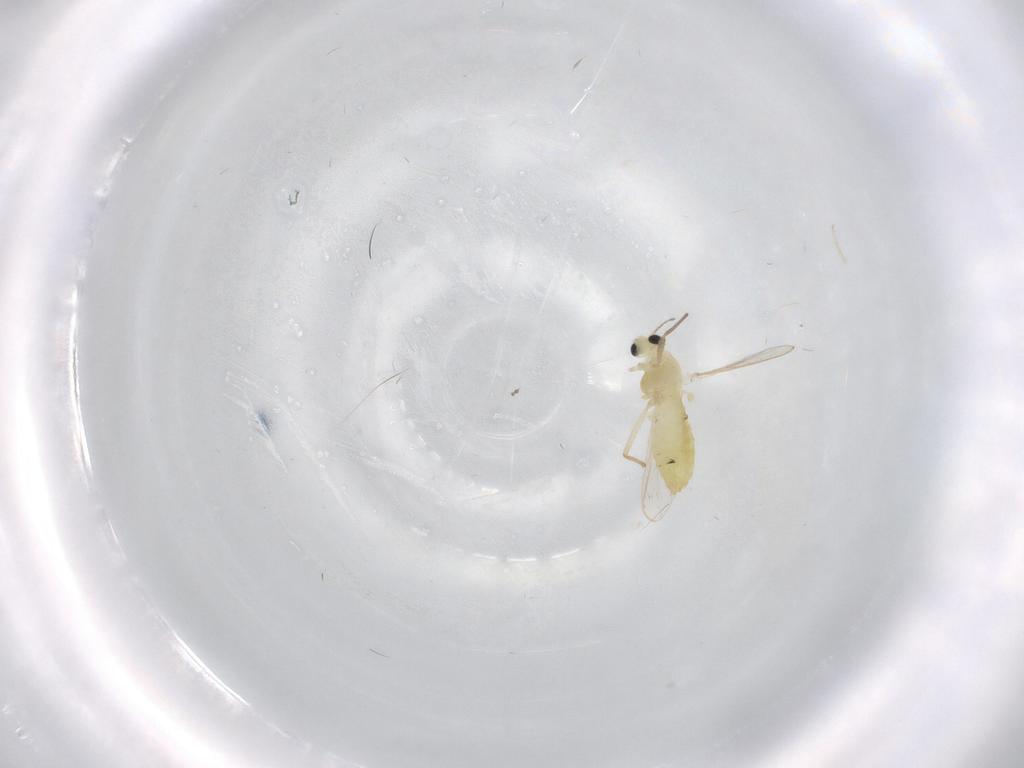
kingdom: Animalia
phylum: Arthropoda
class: Insecta
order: Diptera
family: Chironomidae
